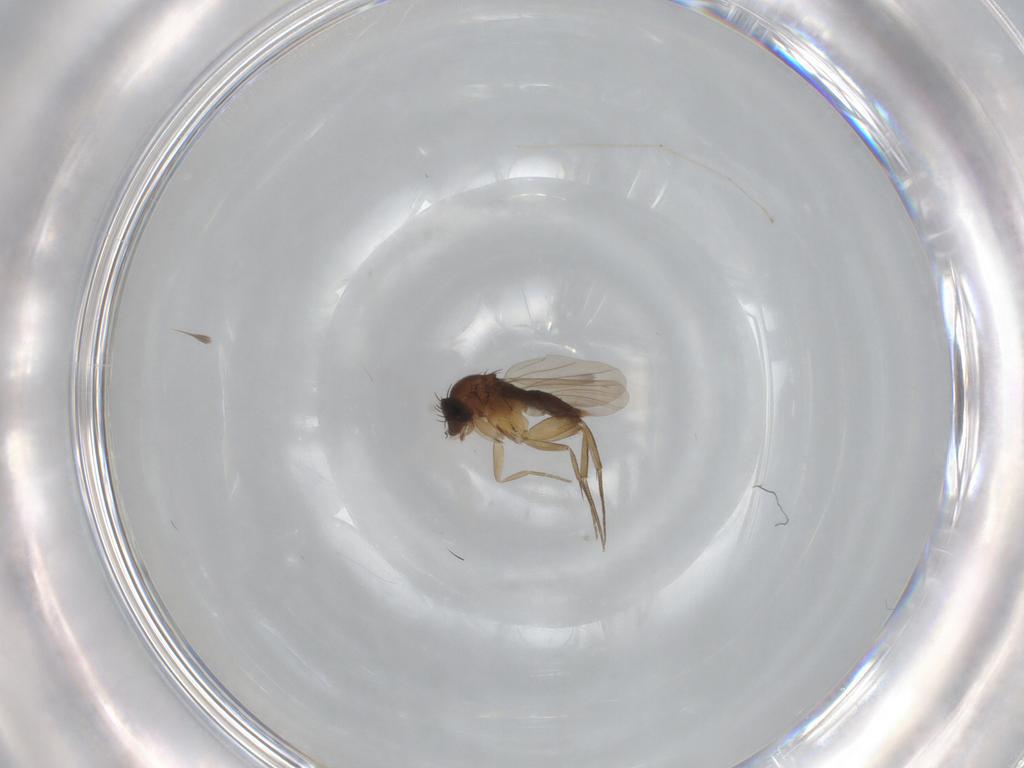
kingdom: Animalia
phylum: Arthropoda
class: Insecta
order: Diptera
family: Phoridae
